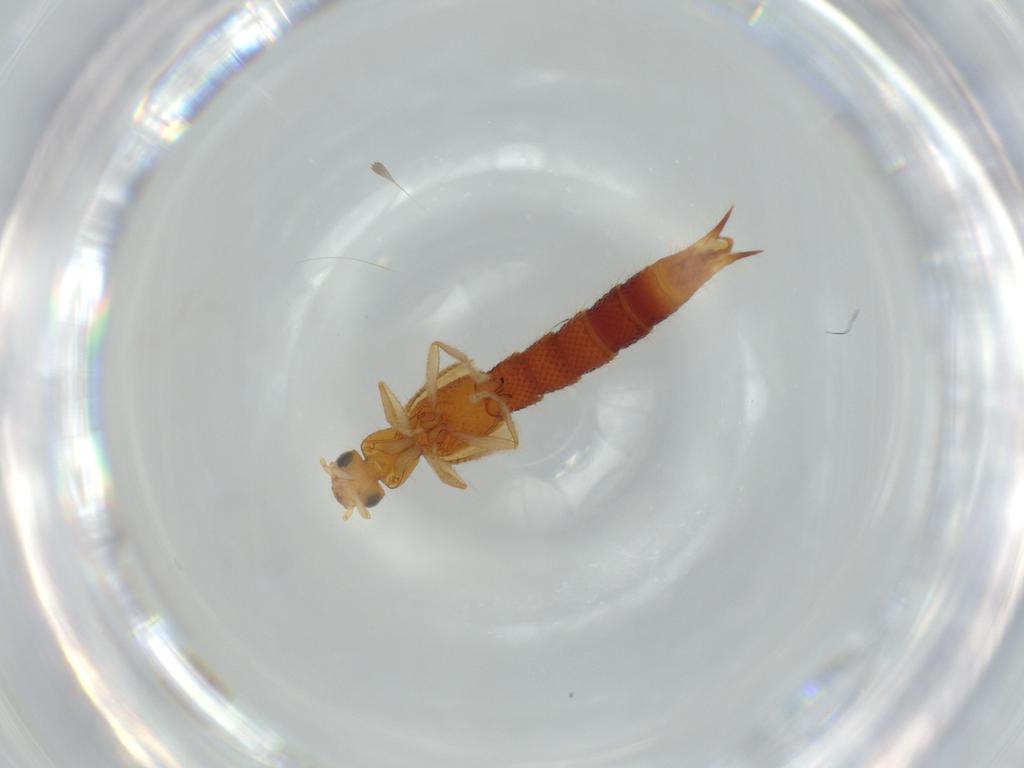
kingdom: Animalia
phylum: Arthropoda
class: Insecta
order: Coleoptera
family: Staphylinidae
